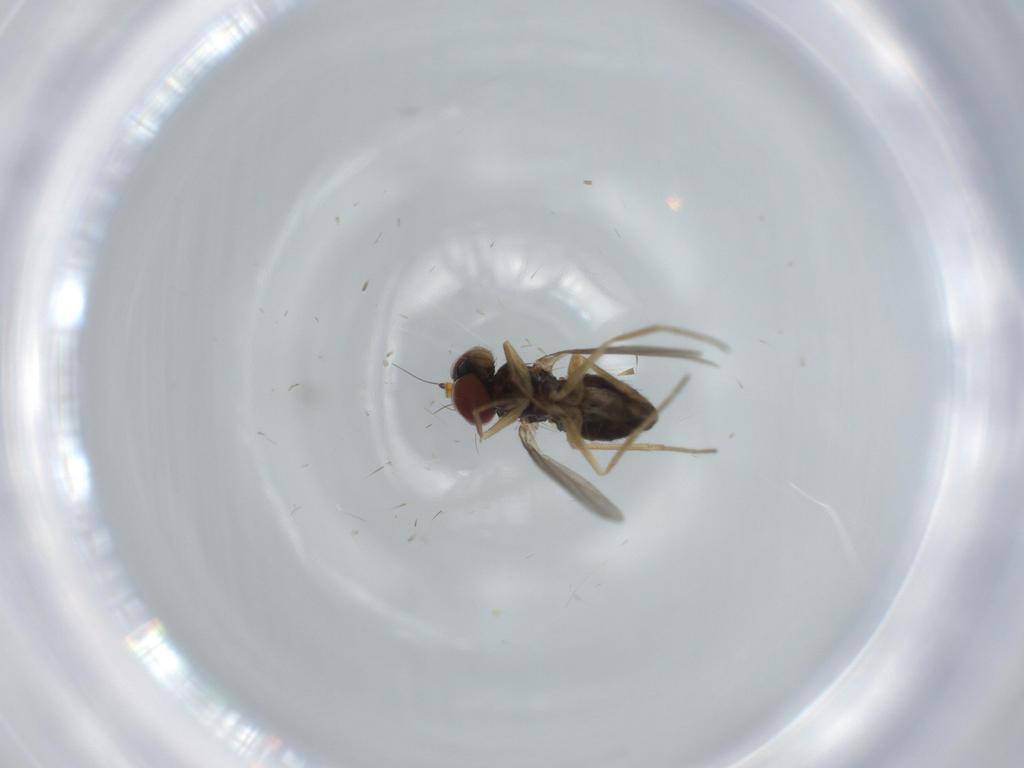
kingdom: Animalia
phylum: Arthropoda
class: Insecta
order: Diptera
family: Dolichopodidae
